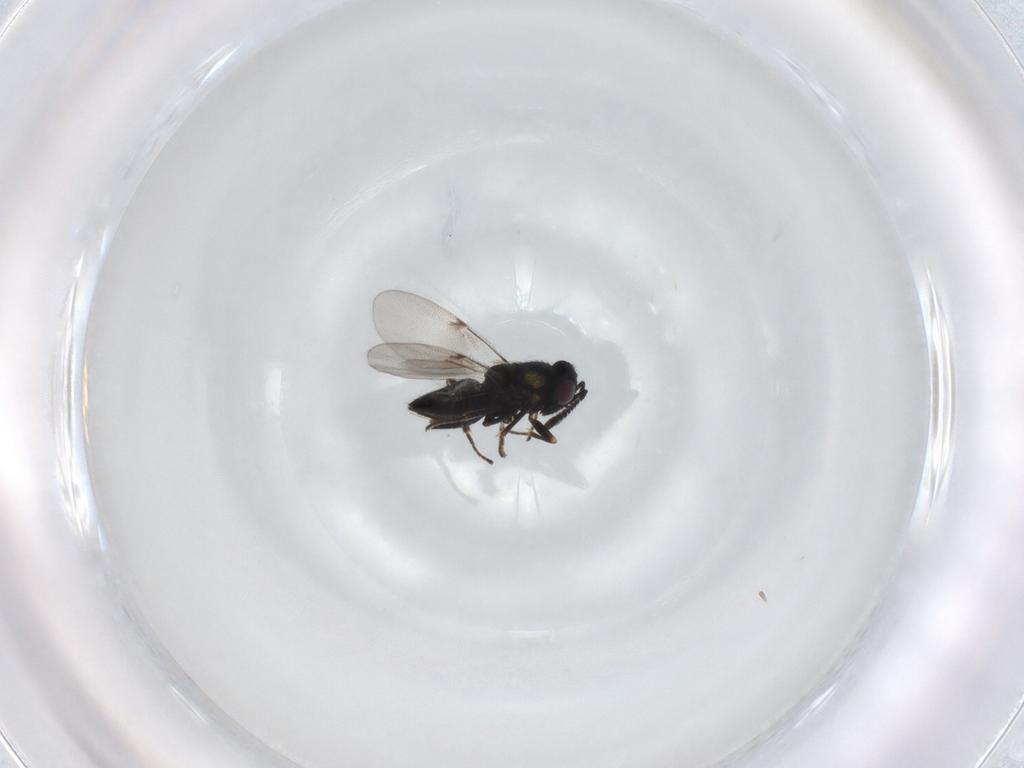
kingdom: Animalia
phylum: Arthropoda
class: Insecta
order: Hymenoptera
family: Encyrtidae
